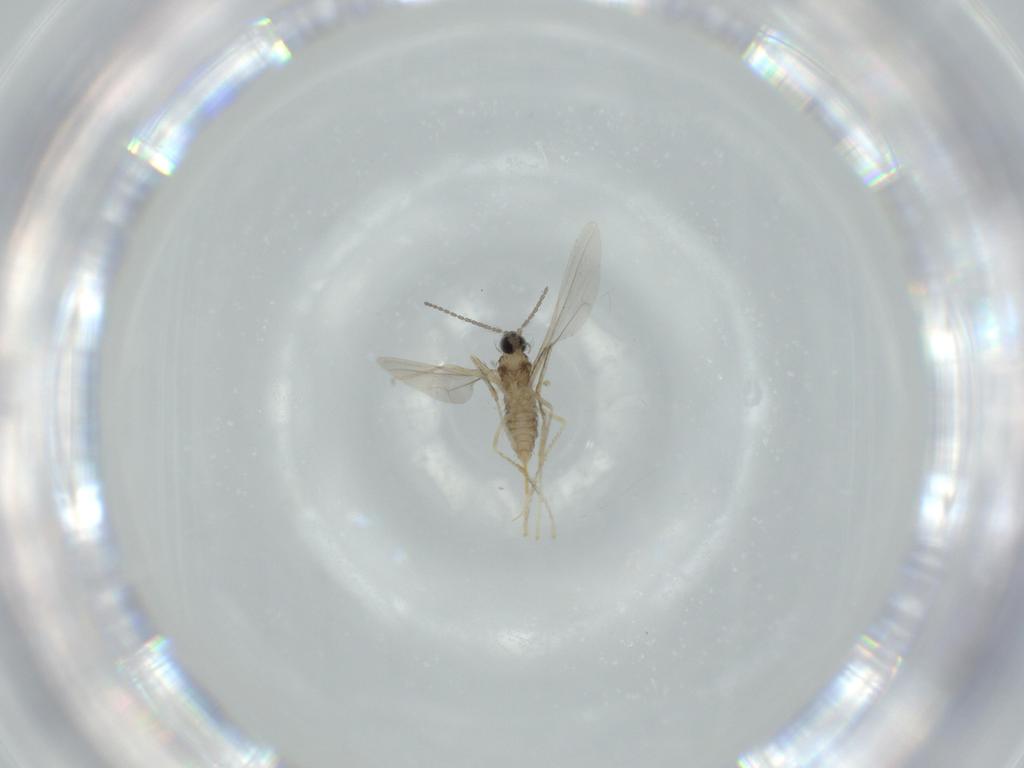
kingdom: Animalia
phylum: Arthropoda
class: Insecta
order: Diptera
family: Cecidomyiidae
